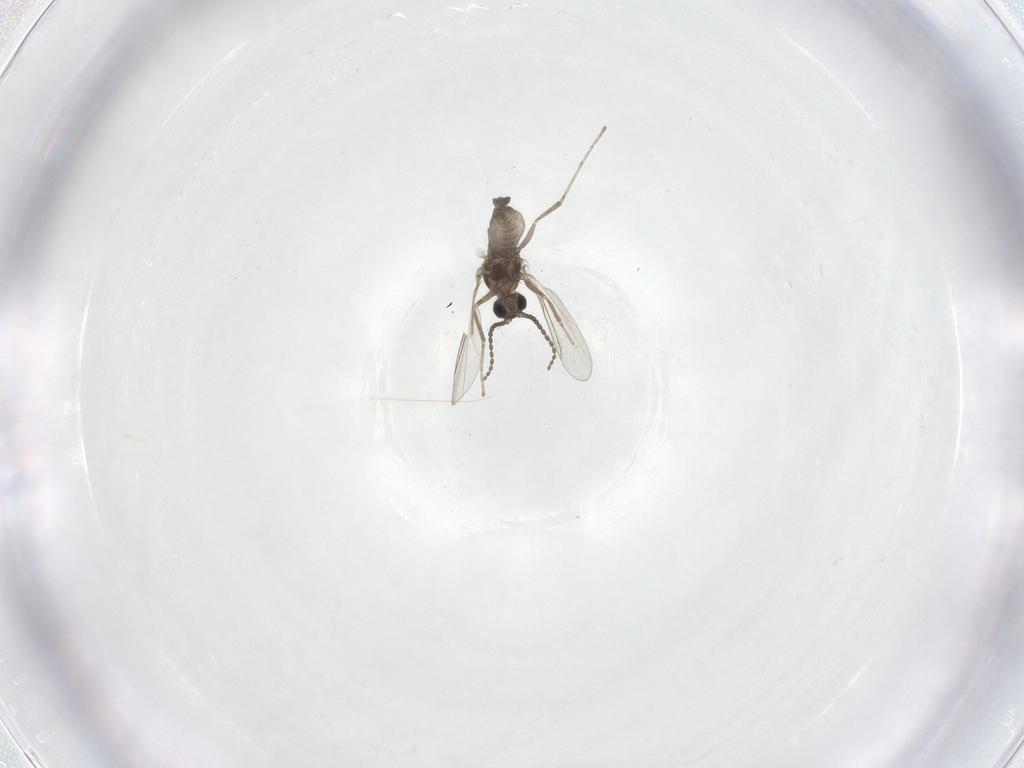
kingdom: Animalia
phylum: Arthropoda
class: Insecta
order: Diptera
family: Cecidomyiidae
